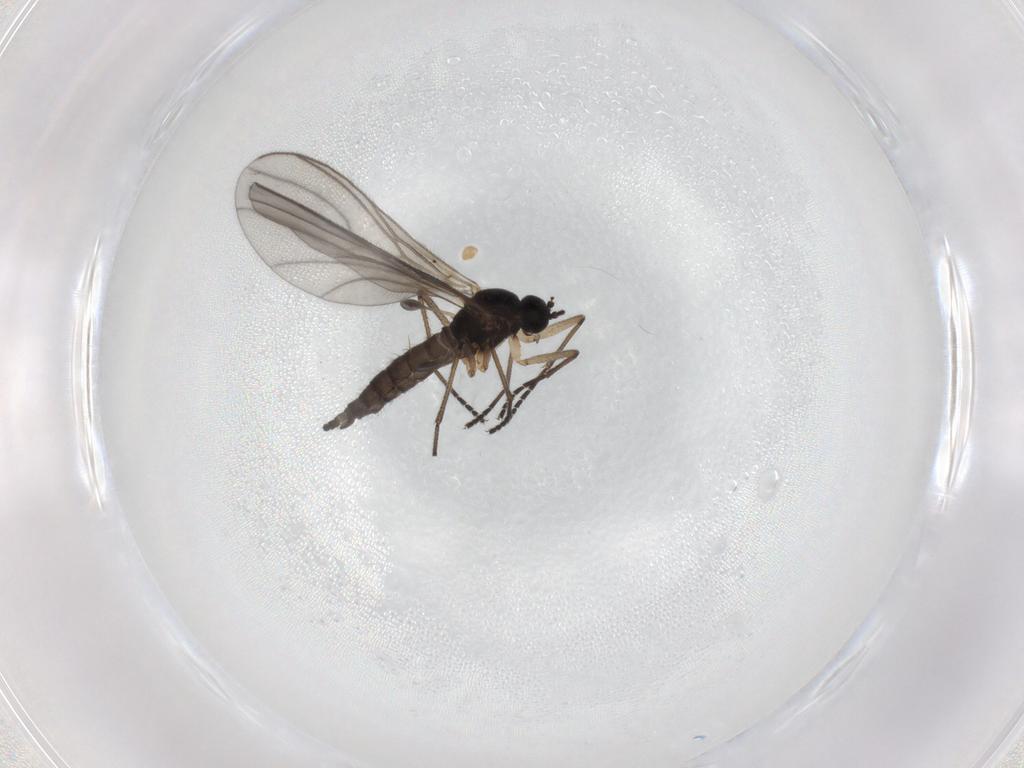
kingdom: Animalia
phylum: Arthropoda
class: Insecta
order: Diptera
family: Sciaridae
